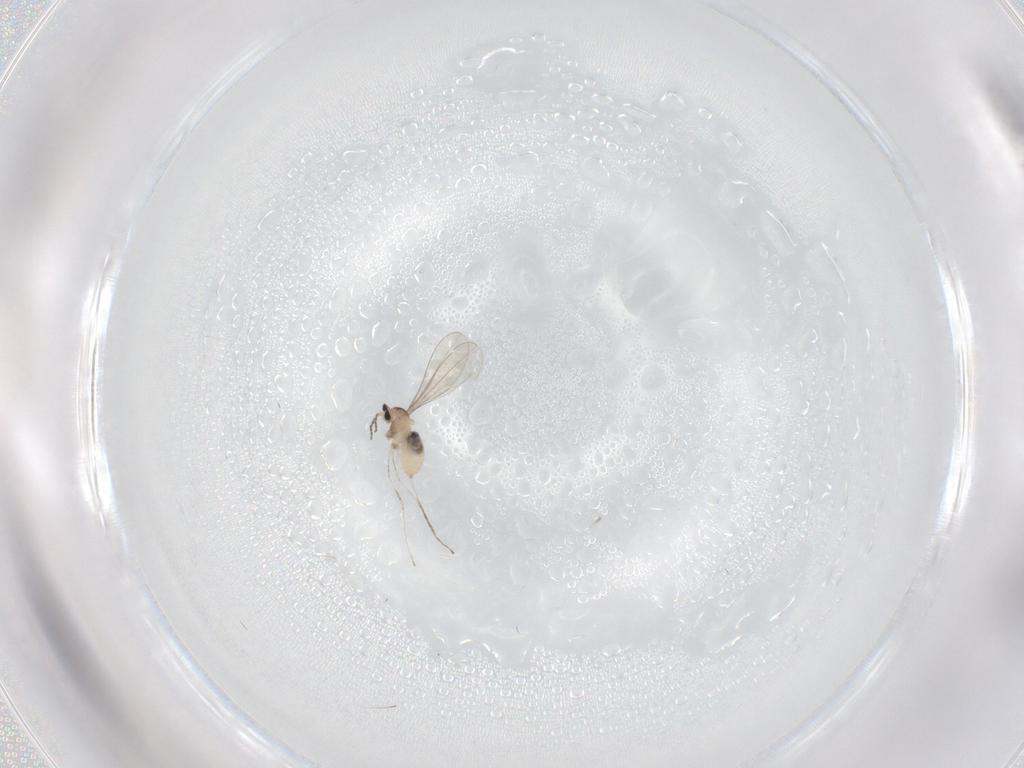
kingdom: Animalia
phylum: Arthropoda
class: Insecta
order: Diptera
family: Cecidomyiidae
